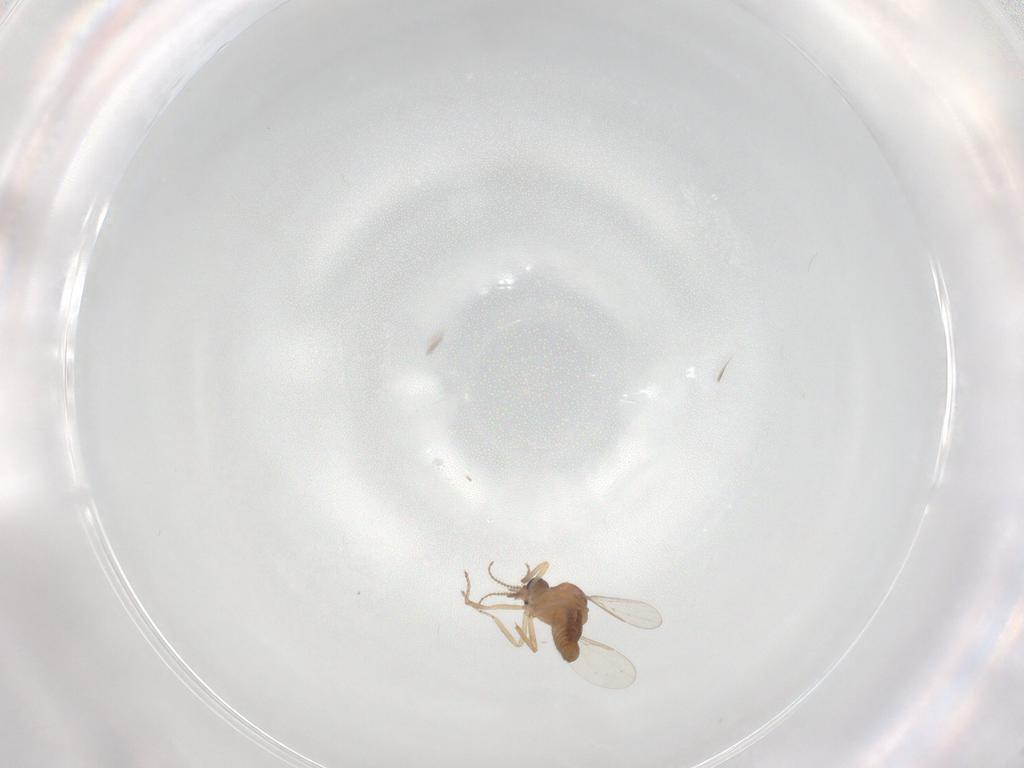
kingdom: Animalia
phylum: Arthropoda
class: Insecta
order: Diptera
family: Ceratopogonidae
